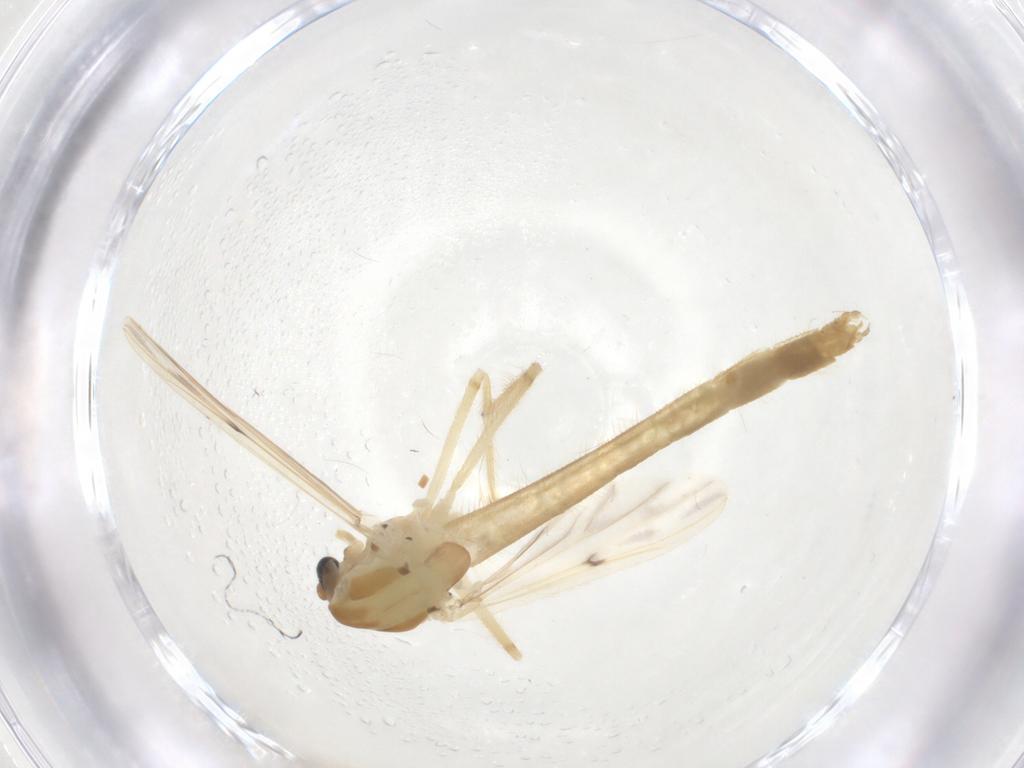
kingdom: Animalia
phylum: Arthropoda
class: Insecta
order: Diptera
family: Chironomidae
